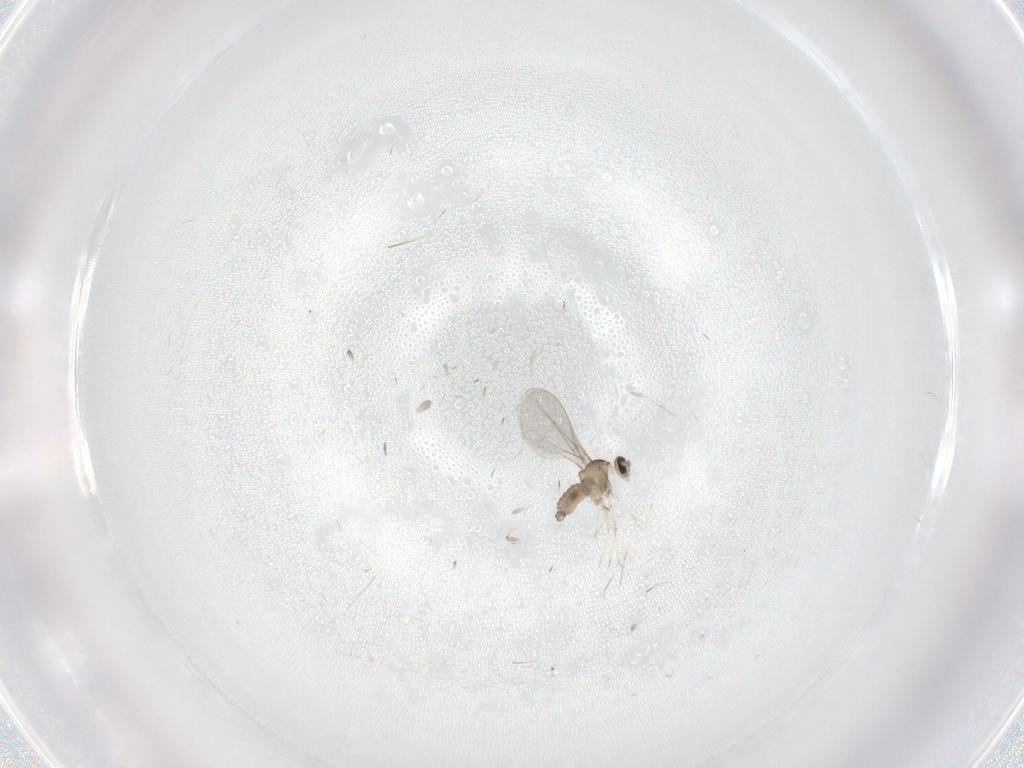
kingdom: Animalia
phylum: Arthropoda
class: Insecta
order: Diptera
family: Cecidomyiidae
